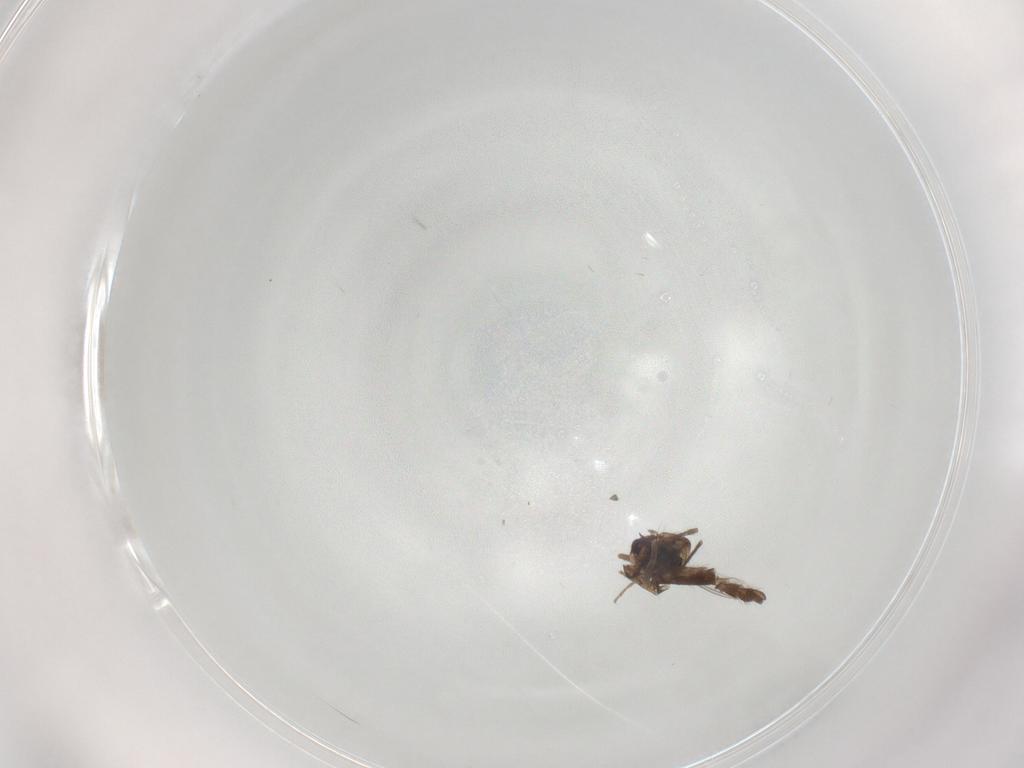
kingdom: Animalia
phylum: Arthropoda
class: Insecta
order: Diptera
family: Chironomidae
